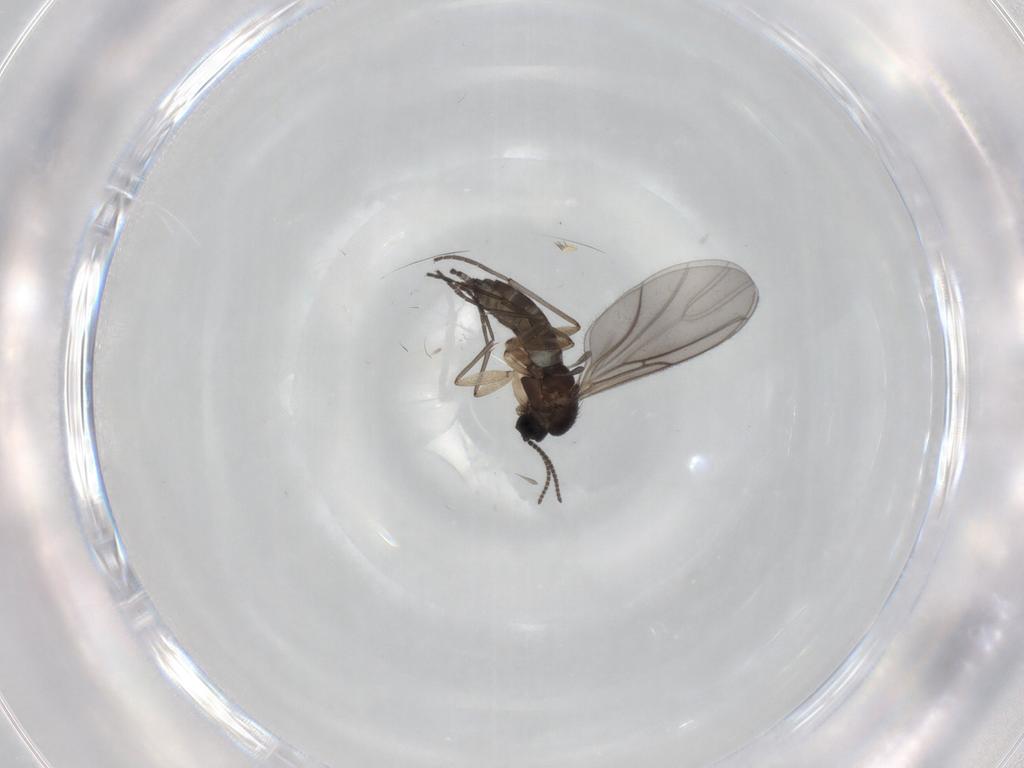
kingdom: Animalia
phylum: Arthropoda
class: Insecta
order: Diptera
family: Sciaridae
